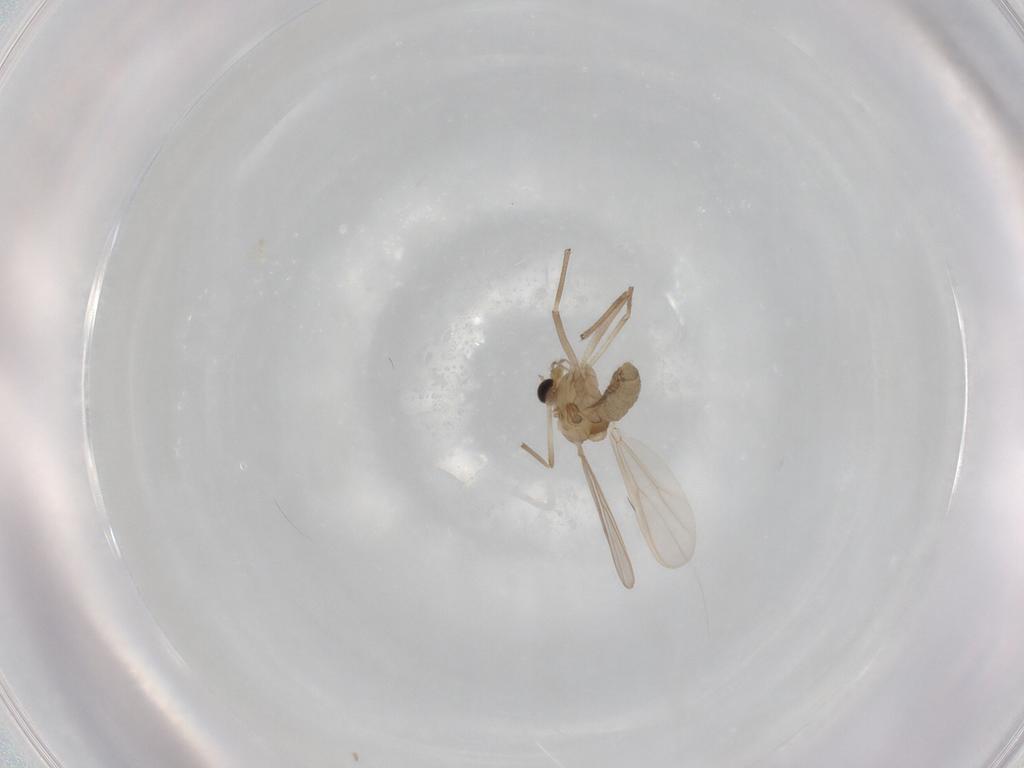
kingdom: Animalia
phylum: Arthropoda
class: Insecta
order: Diptera
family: Chironomidae
